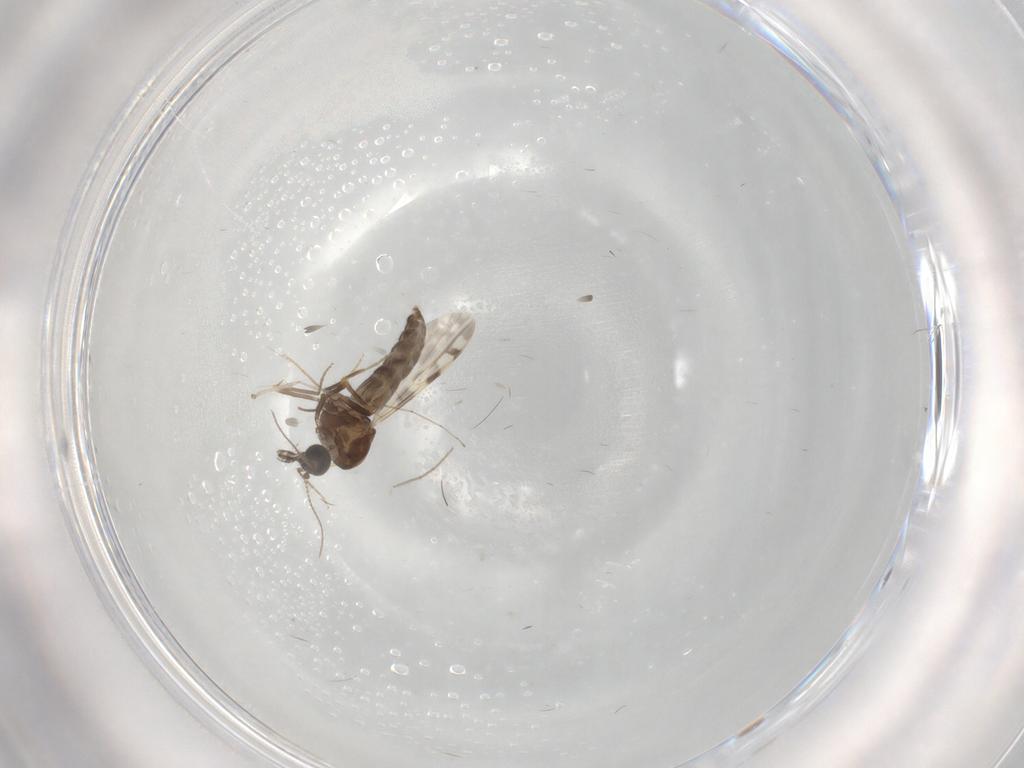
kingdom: Animalia
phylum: Arthropoda
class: Insecta
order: Diptera
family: Ceratopogonidae
